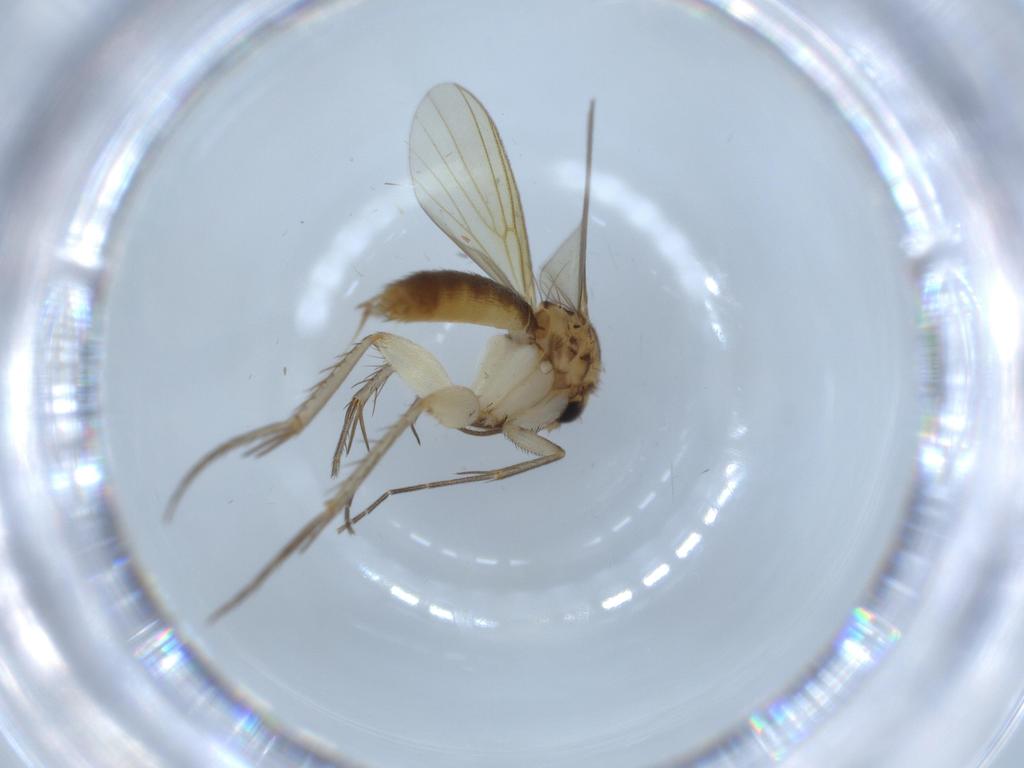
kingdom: Animalia
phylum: Arthropoda
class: Insecta
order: Diptera
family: Mycetophilidae
